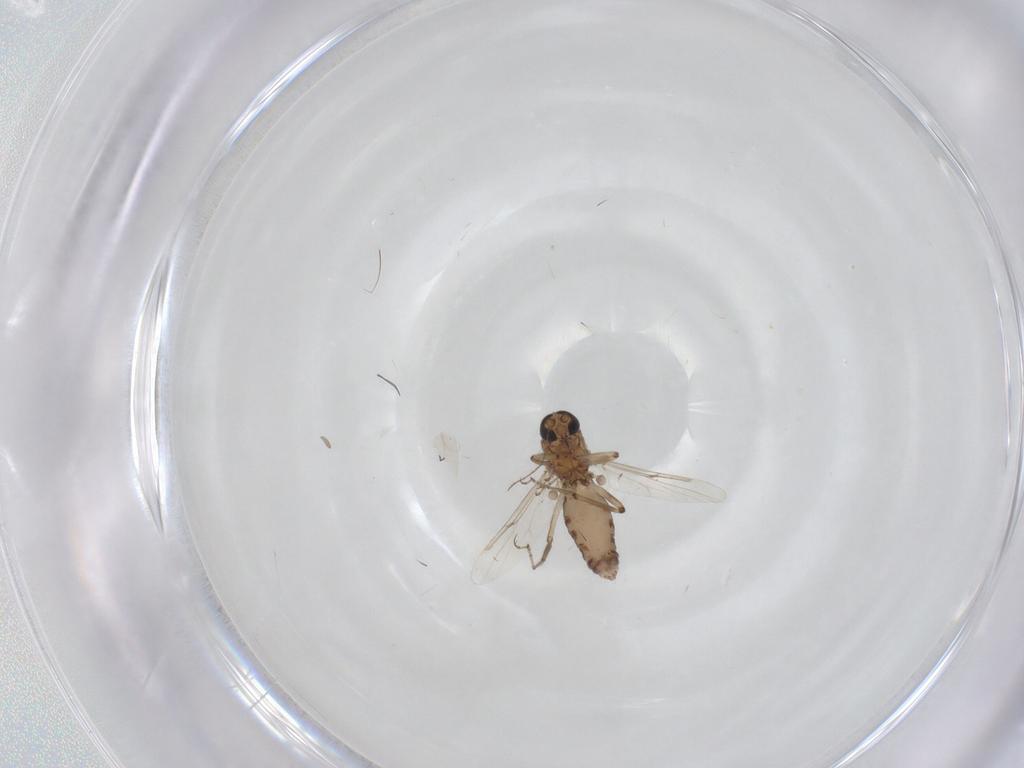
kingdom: Animalia
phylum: Arthropoda
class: Insecta
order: Diptera
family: Ceratopogonidae
